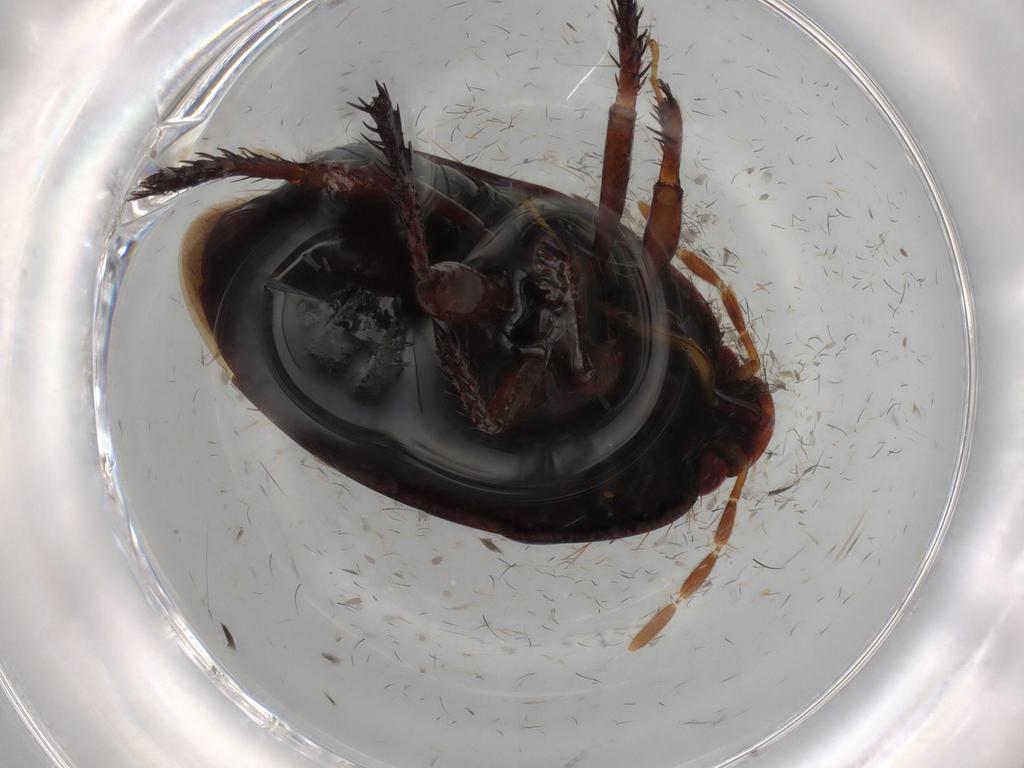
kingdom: Animalia
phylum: Arthropoda
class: Insecta
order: Hemiptera
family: Cydnidae
